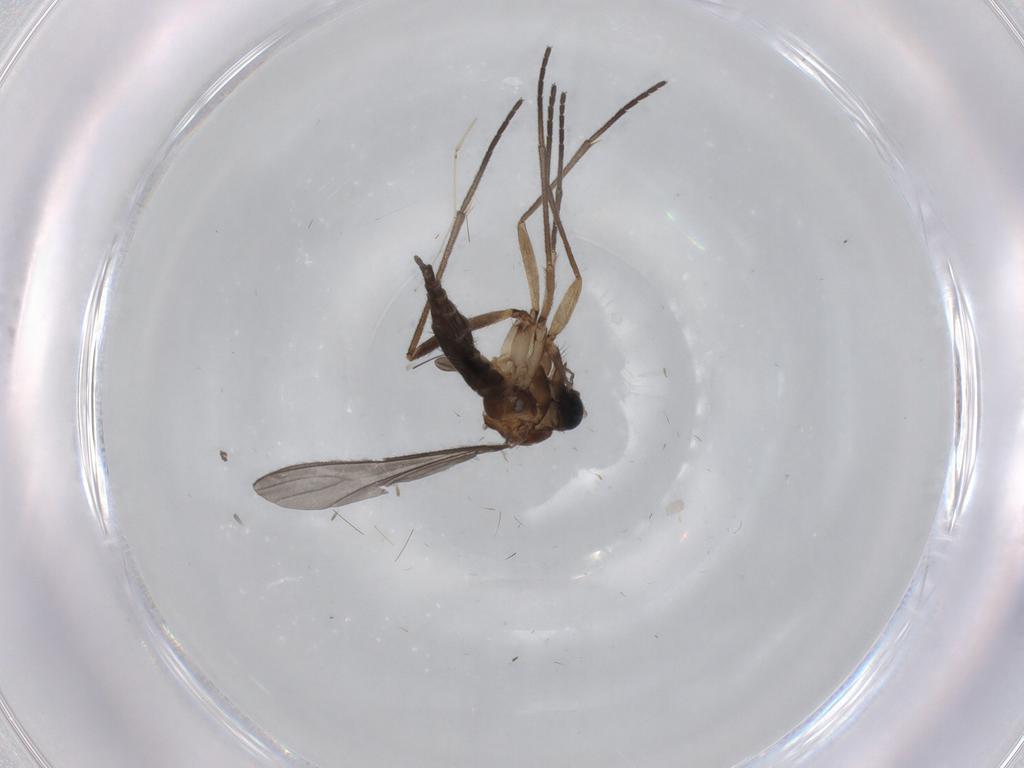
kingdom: Animalia
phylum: Arthropoda
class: Insecta
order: Diptera
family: Sciaridae
